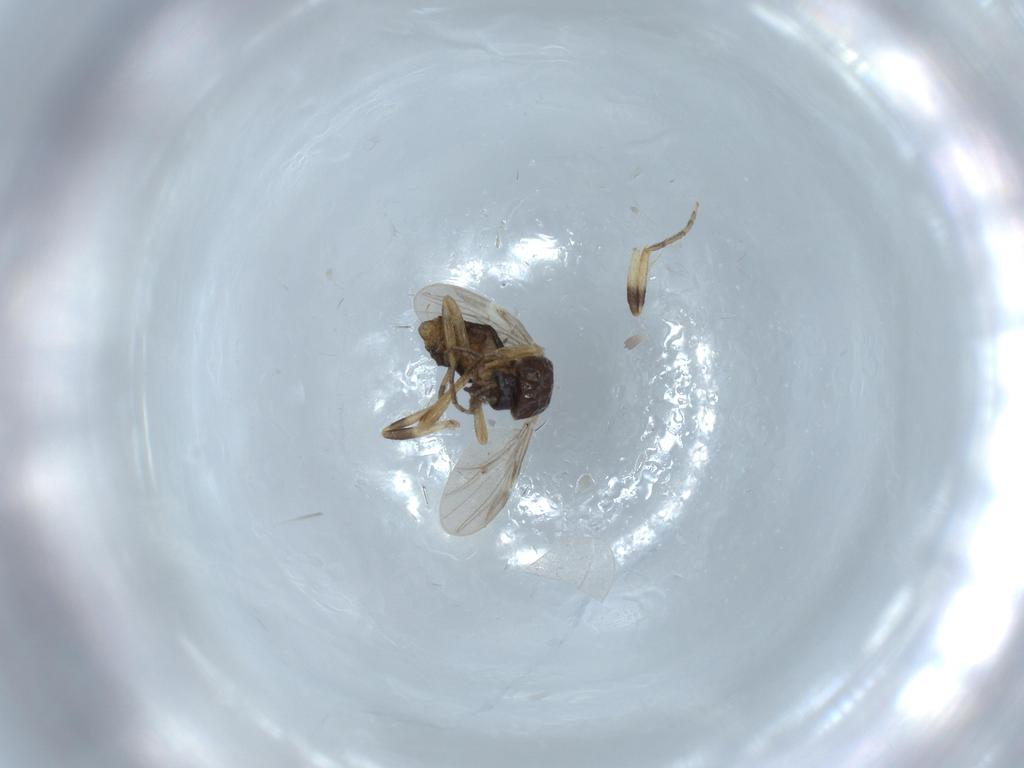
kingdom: Animalia
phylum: Arthropoda
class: Insecta
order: Diptera
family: Ceratopogonidae
